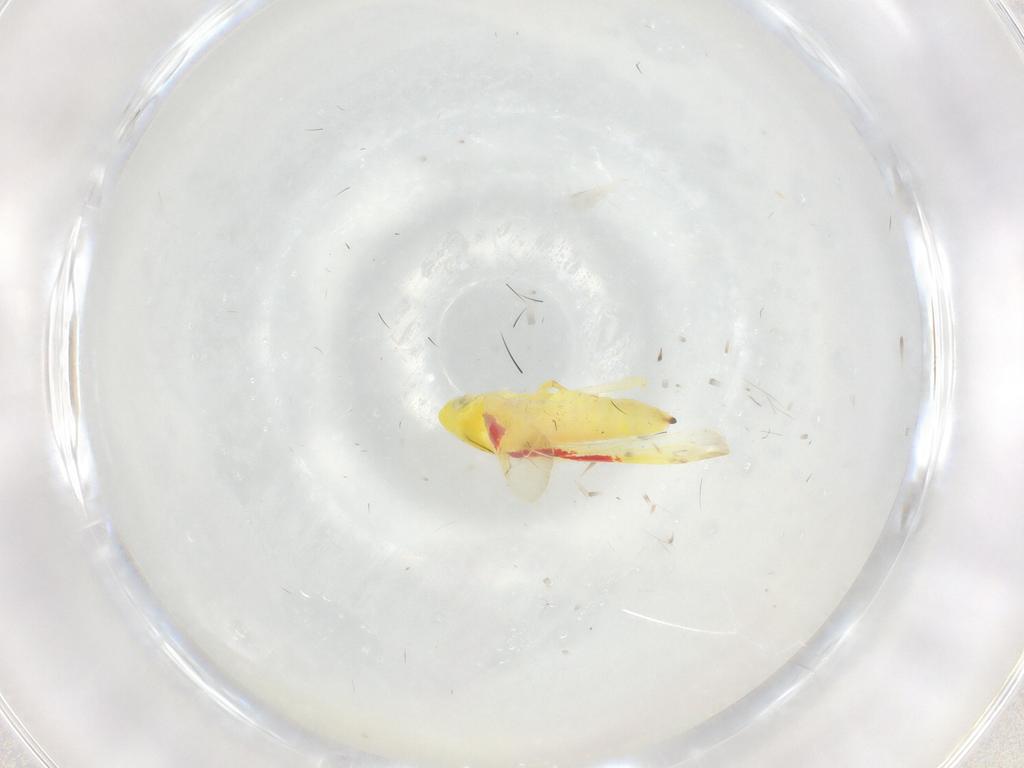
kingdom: Animalia
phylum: Arthropoda
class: Insecta
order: Hemiptera
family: Cicadellidae
